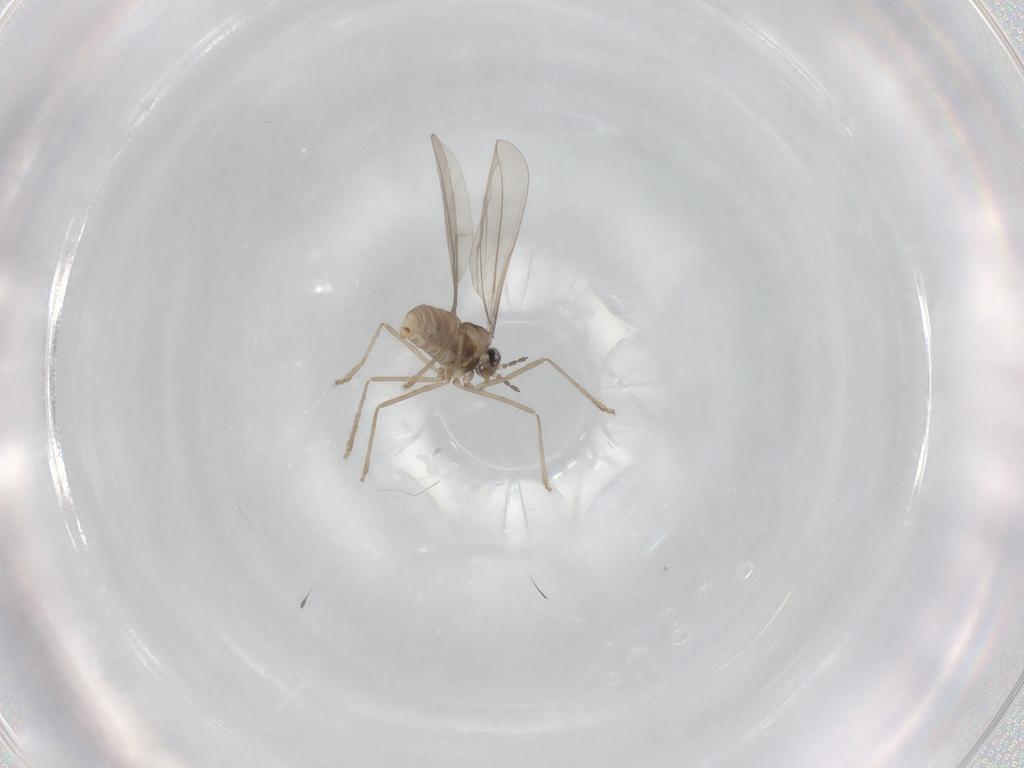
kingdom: Animalia
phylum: Arthropoda
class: Insecta
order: Diptera
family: Cecidomyiidae
